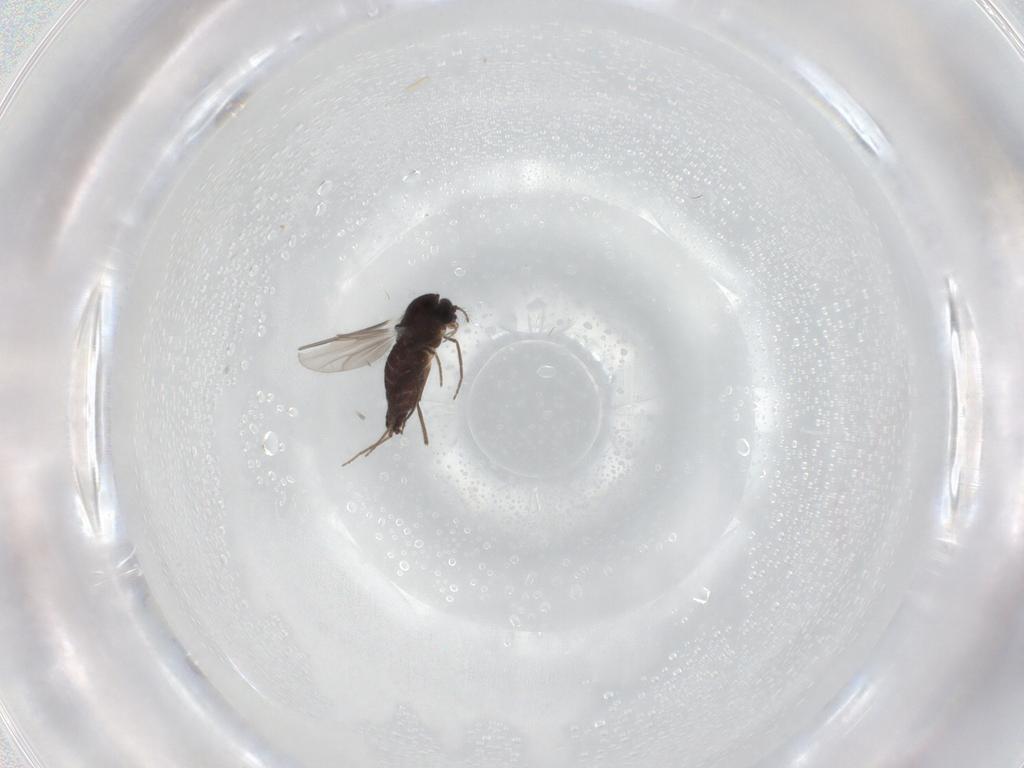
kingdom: Animalia
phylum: Arthropoda
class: Insecta
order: Diptera
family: Chironomidae
